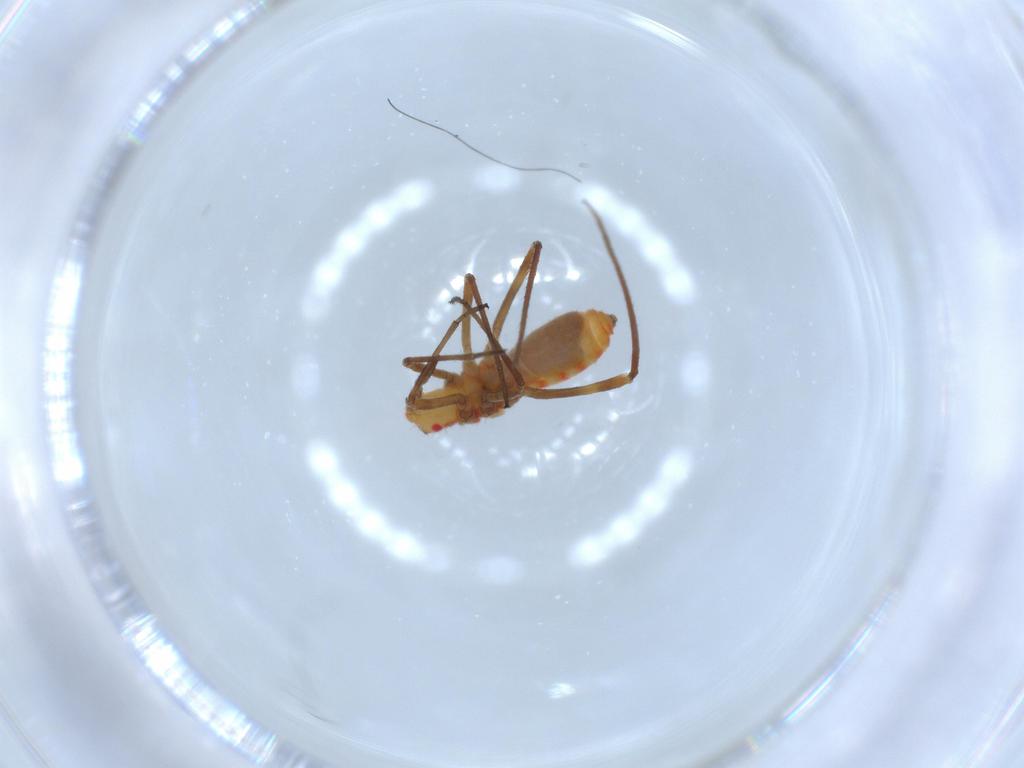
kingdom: Animalia
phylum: Arthropoda
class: Insecta
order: Hemiptera
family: Berytidae
